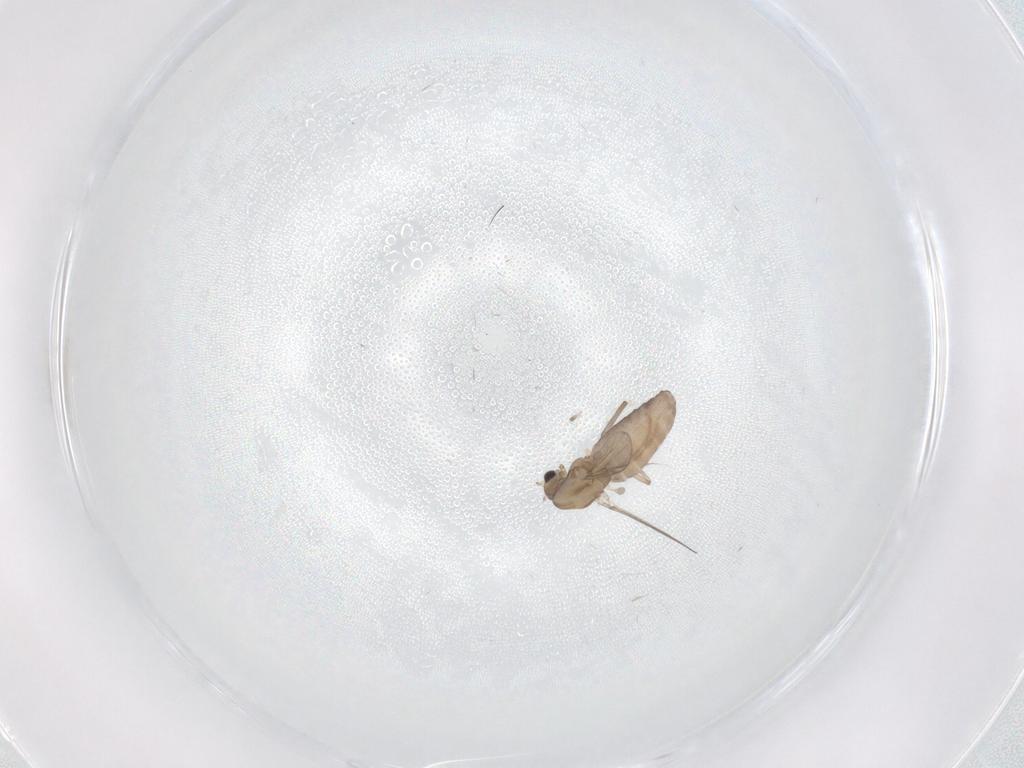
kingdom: Animalia
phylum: Arthropoda
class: Insecta
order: Diptera
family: Chironomidae
